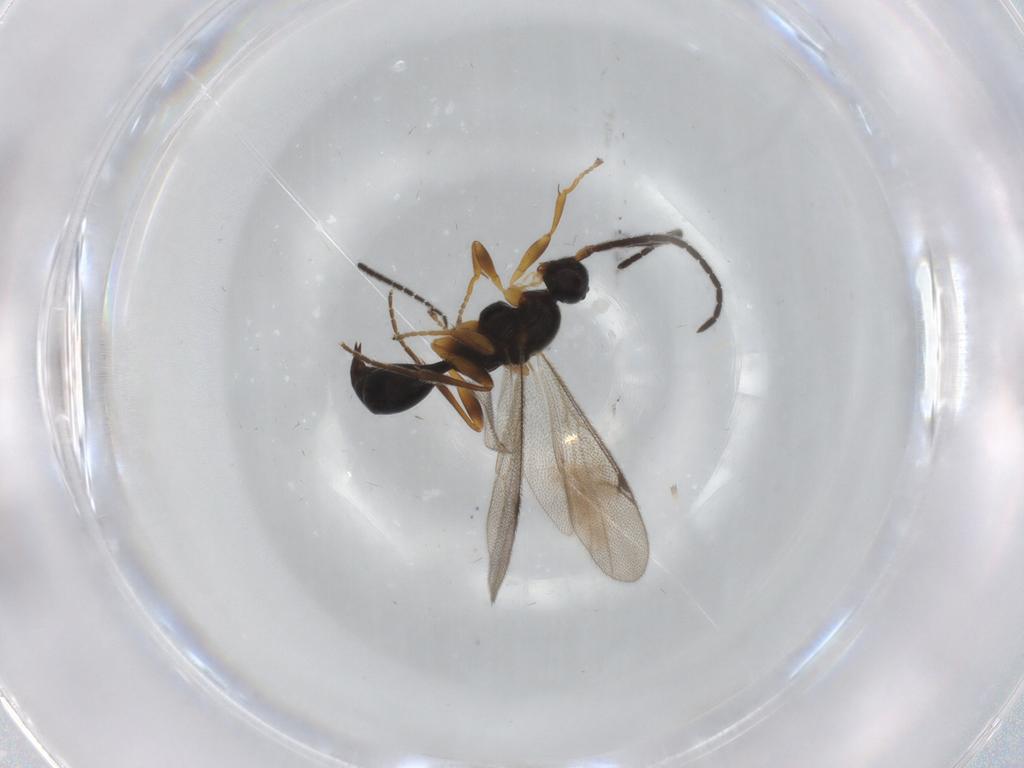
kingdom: Animalia
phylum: Arthropoda
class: Insecta
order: Hymenoptera
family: Proctotrupidae
